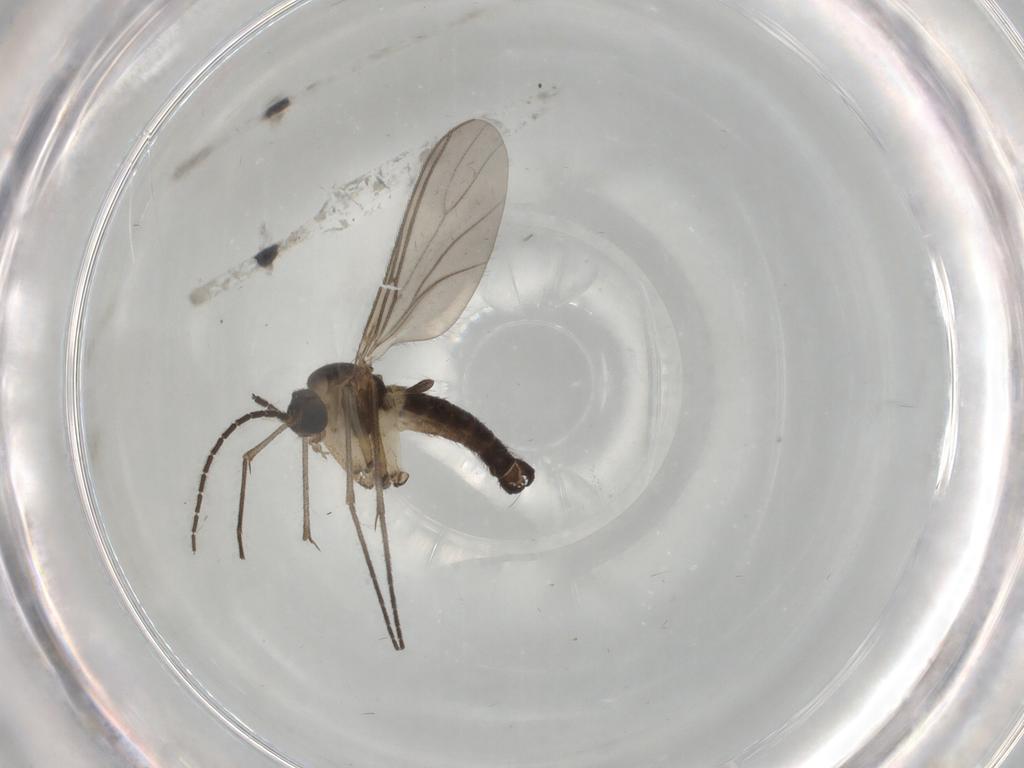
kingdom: Animalia
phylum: Arthropoda
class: Insecta
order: Diptera
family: Sciaridae
